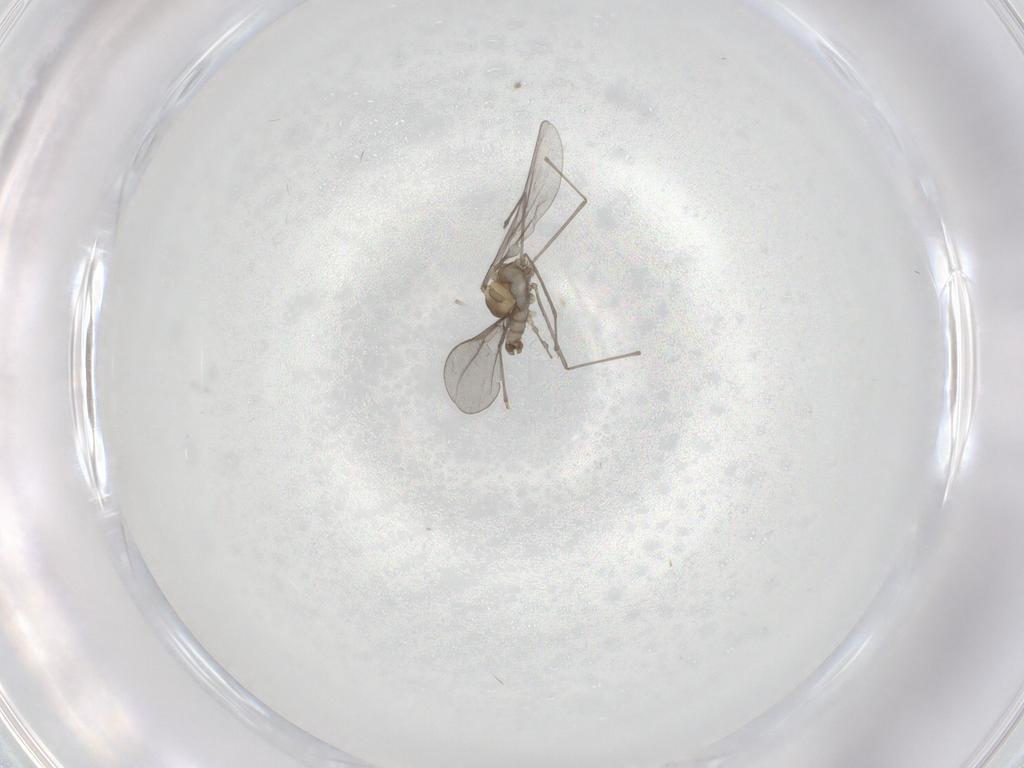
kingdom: Animalia
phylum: Arthropoda
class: Insecta
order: Diptera
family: Cecidomyiidae
